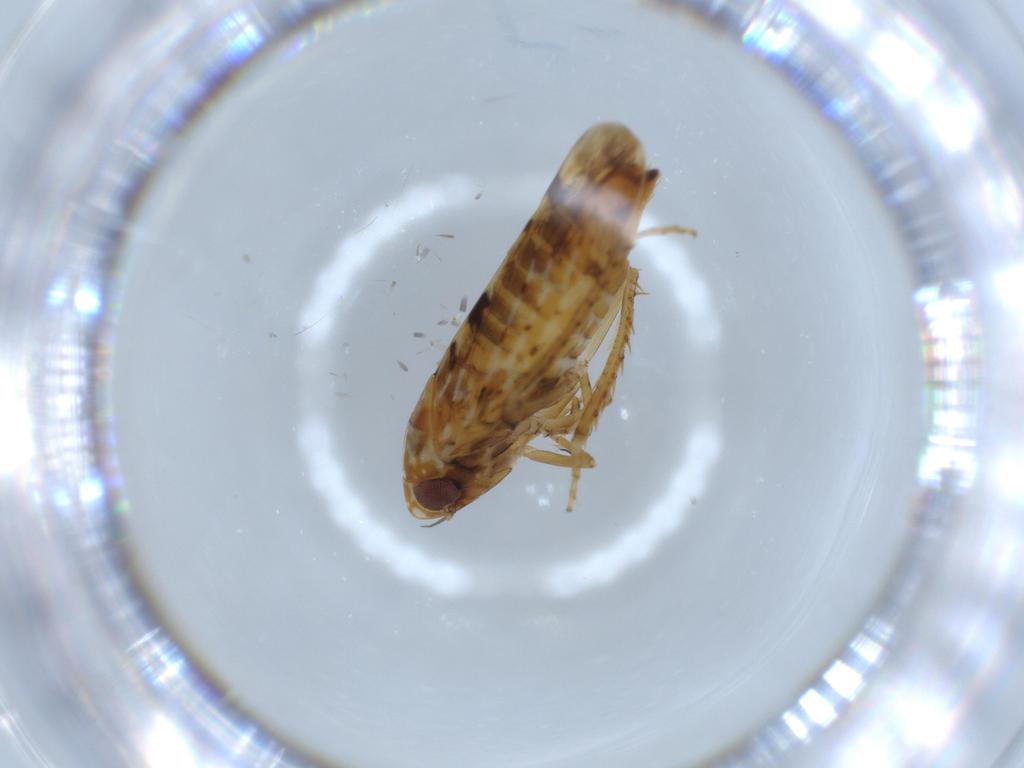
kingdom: Animalia
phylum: Arthropoda
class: Insecta
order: Hemiptera
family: Cicadellidae
